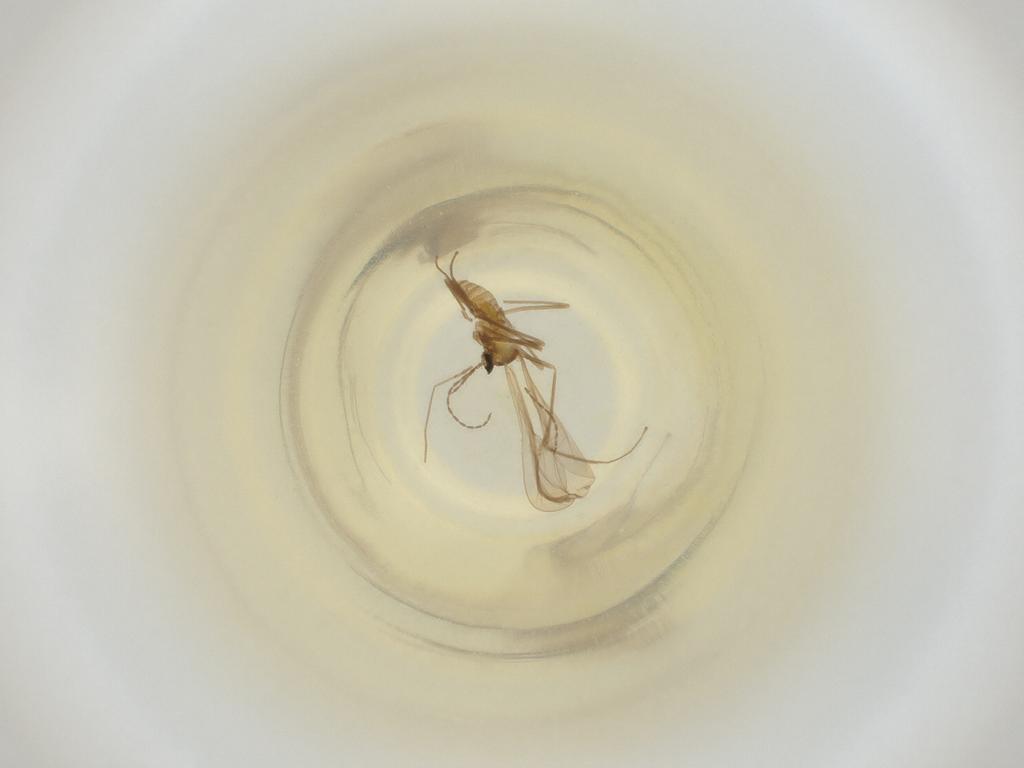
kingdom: Animalia
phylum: Arthropoda
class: Insecta
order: Diptera
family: Cecidomyiidae
